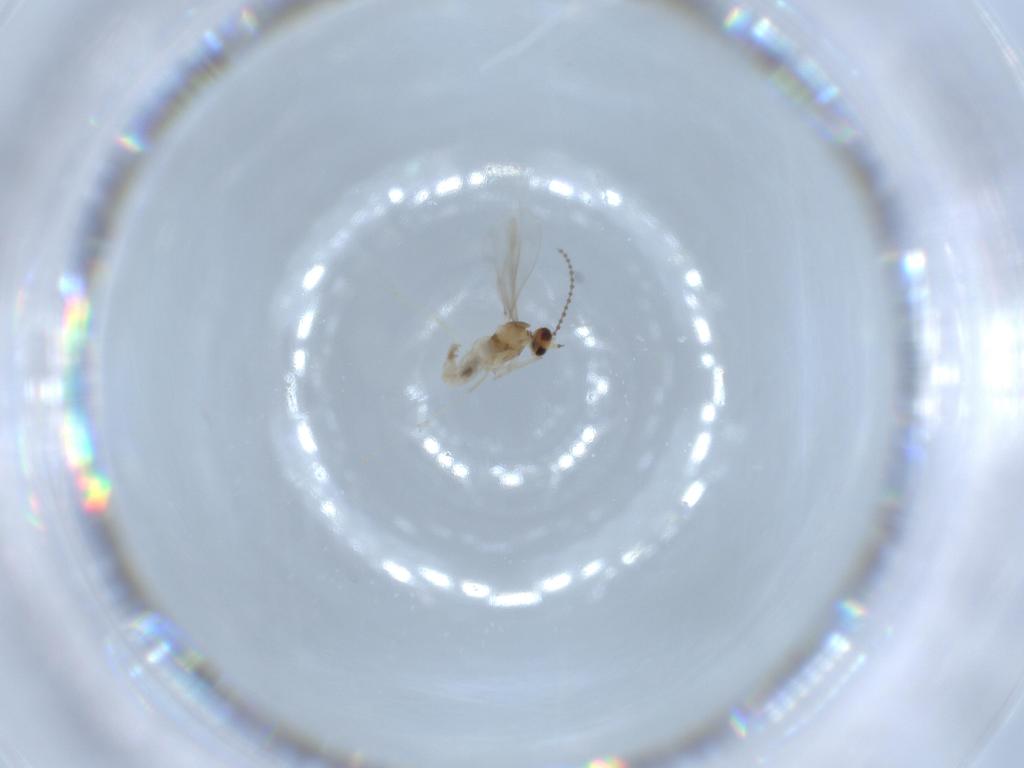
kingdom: Animalia
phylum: Arthropoda
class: Insecta
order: Diptera
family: Cecidomyiidae
